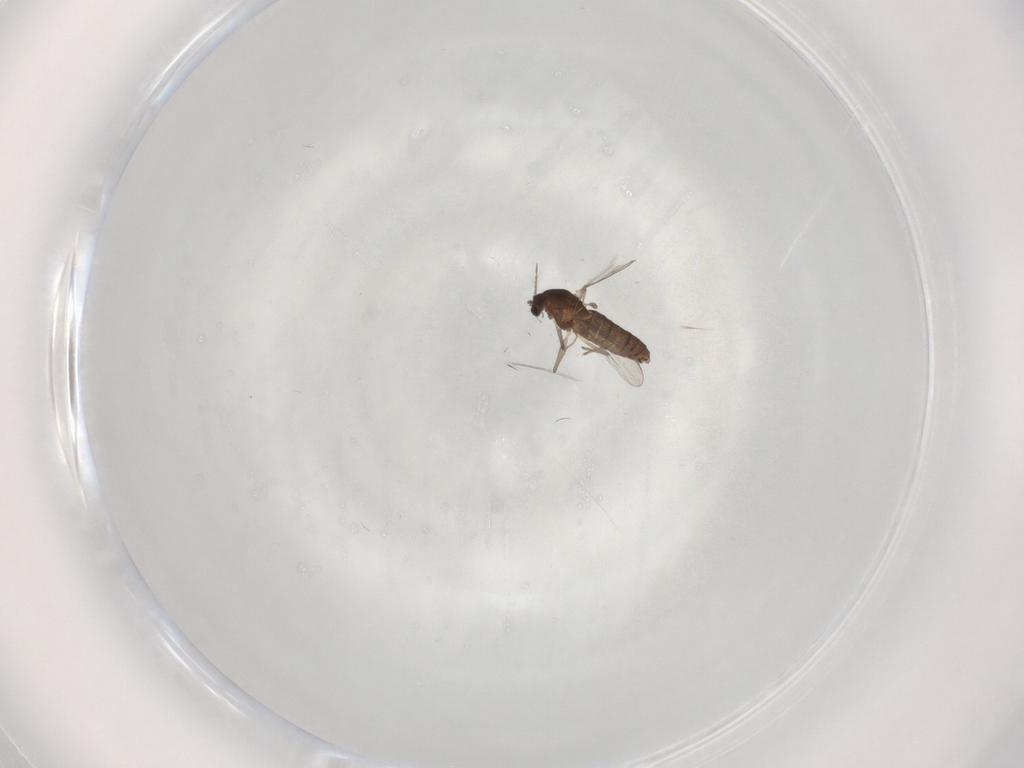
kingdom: Animalia
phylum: Arthropoda
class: Insecta
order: Diptera
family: Chironomidae
